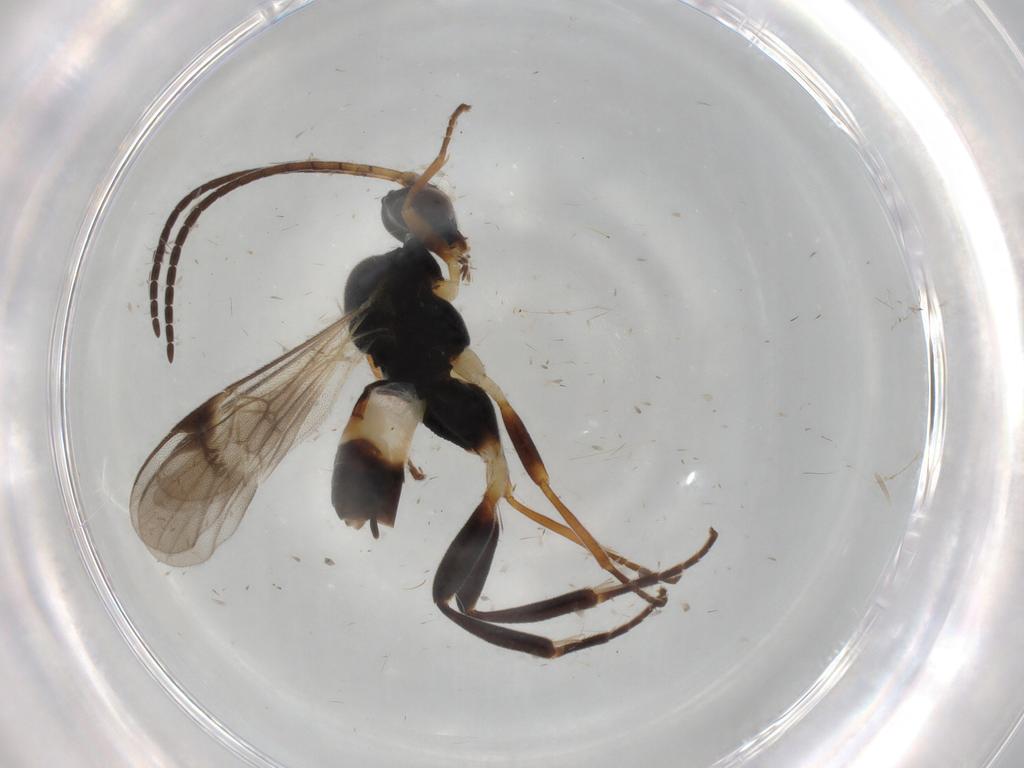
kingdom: Animalia
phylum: Arthropoda
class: Insecta
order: Hymenoptera
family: Braconidae
